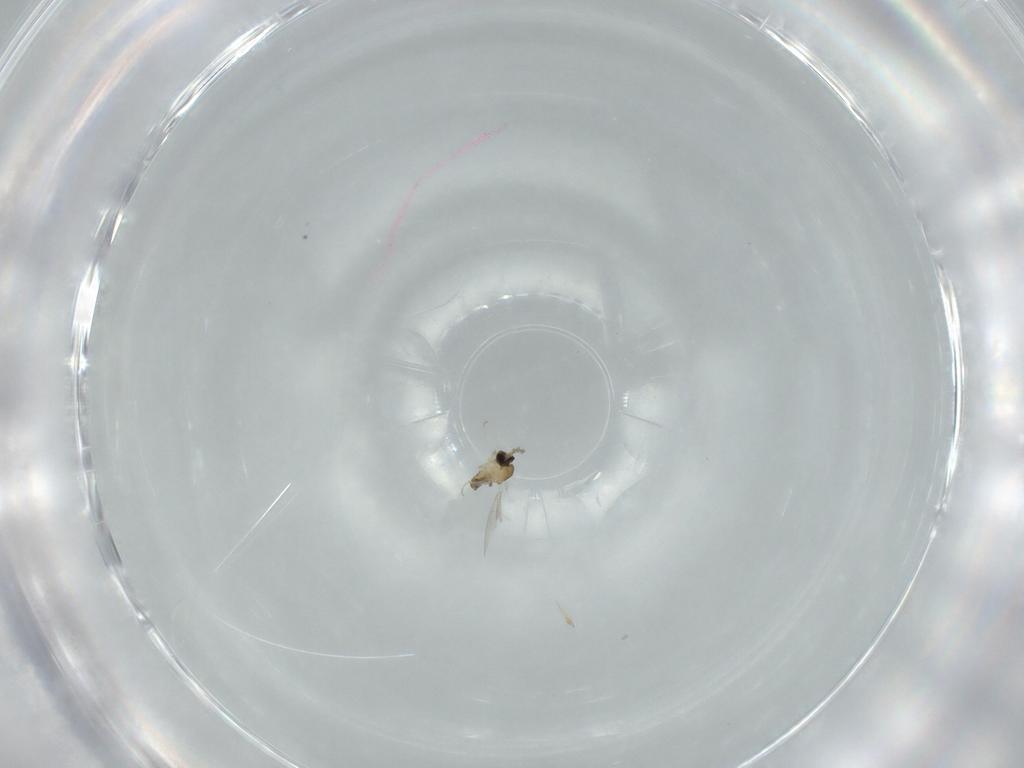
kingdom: Animalia
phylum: Arthropoda
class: Insecta
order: Diptera
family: Cecidomyiidae
